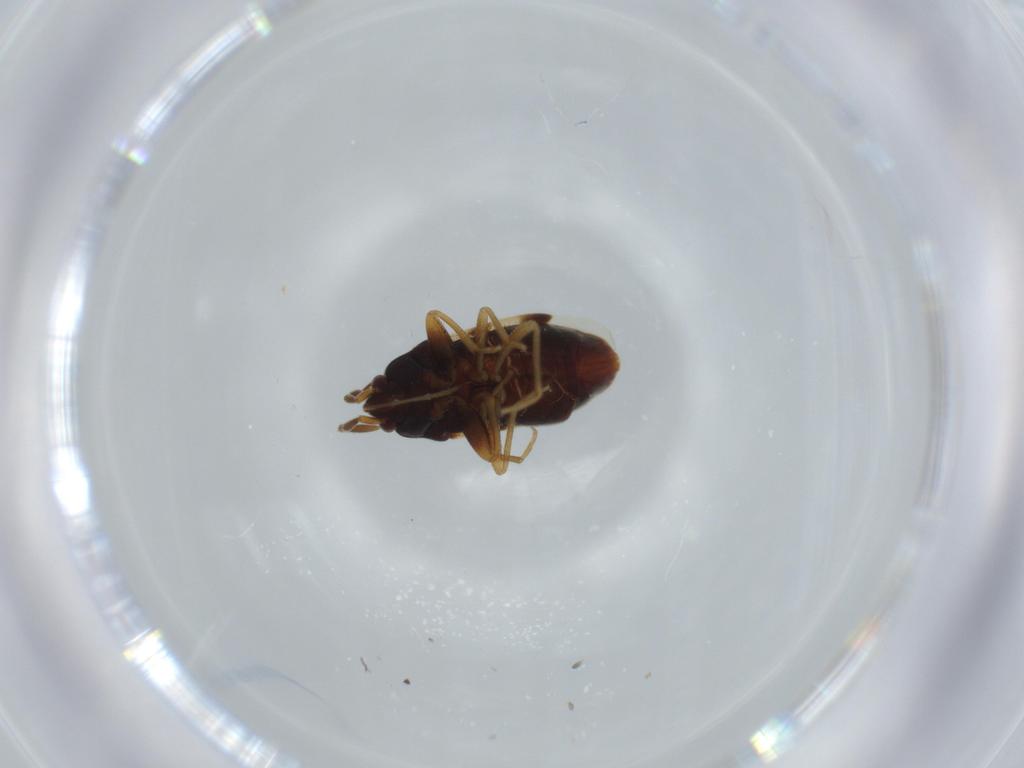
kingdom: Animalia
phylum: Arthropoda
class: Insecta
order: Hemiptera
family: Rhyparochromidae
